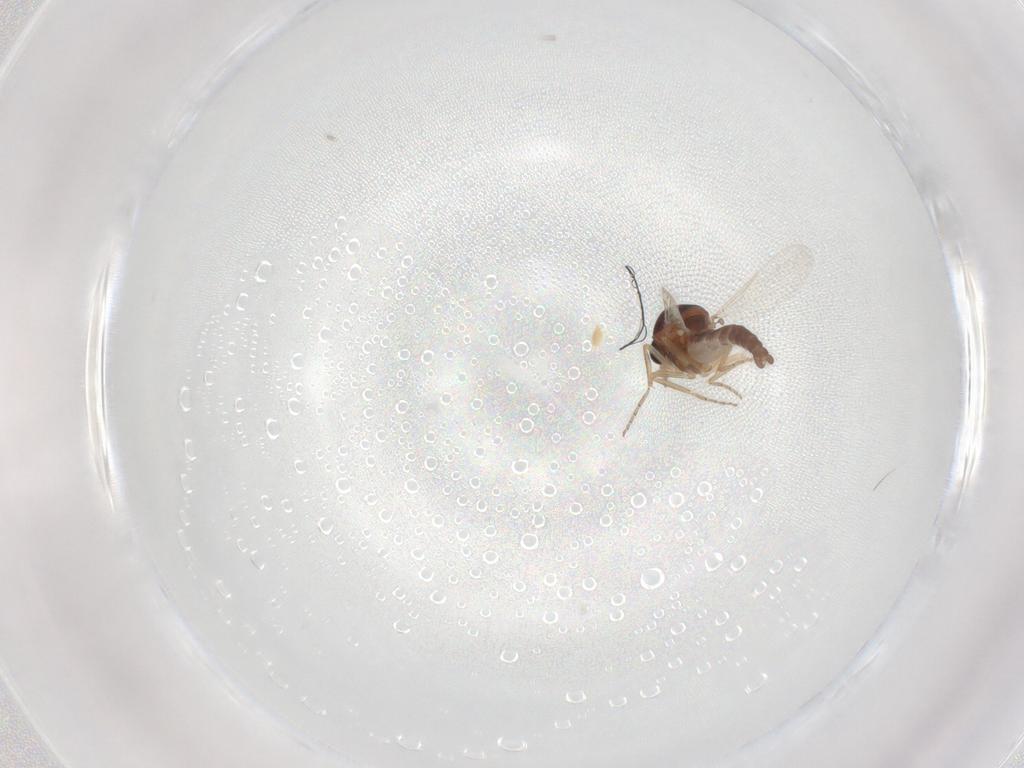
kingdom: Animalia
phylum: Arthropoda
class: Insecta
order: Diptera
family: Ceratopogonidae
